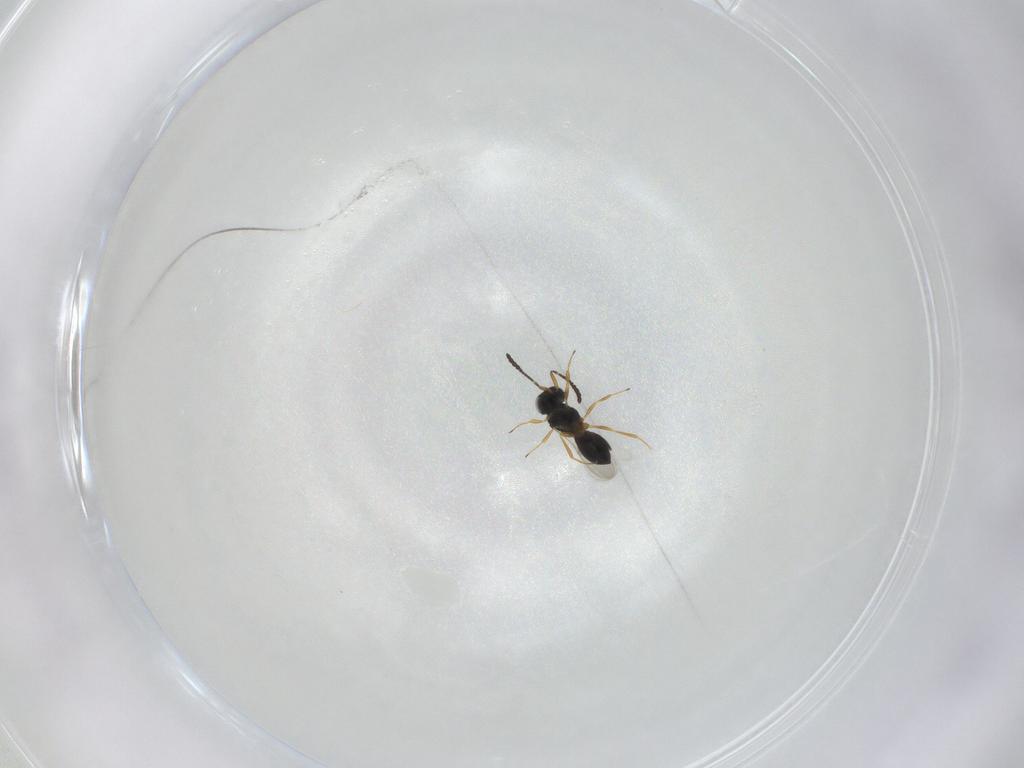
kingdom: Animalia
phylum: Arthropoda
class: Insecta
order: Hymenoptera
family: Scelionidae
